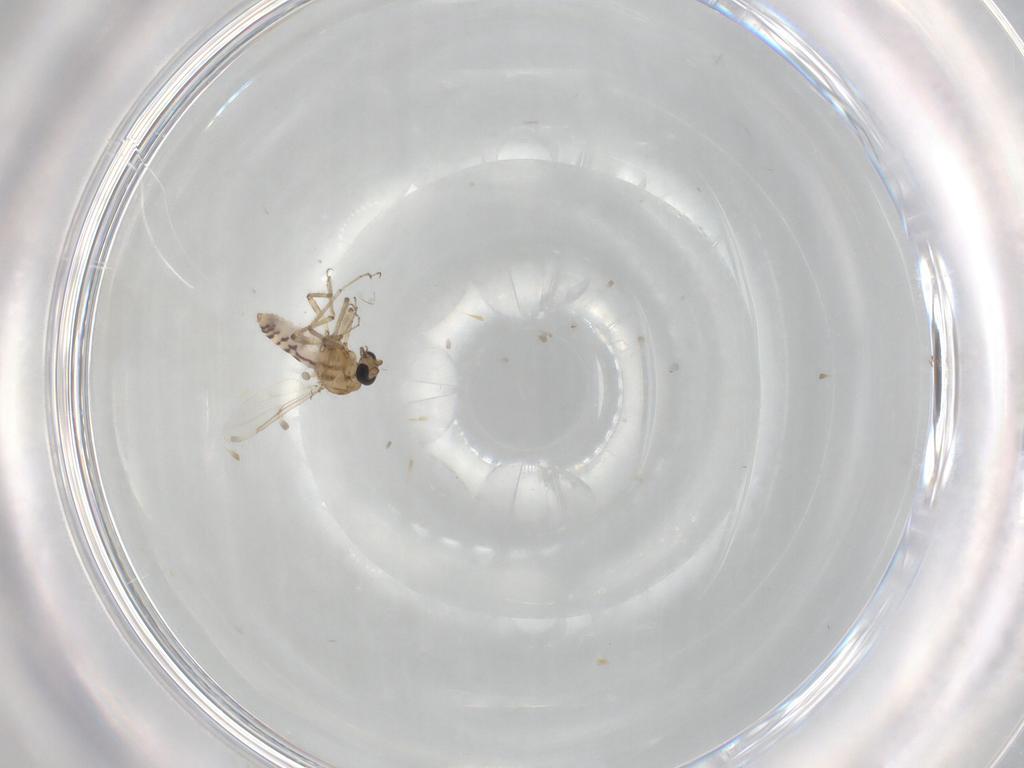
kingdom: Animalia
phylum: Arthropoda
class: Insecta
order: Diptera
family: Ceratopogonidae
